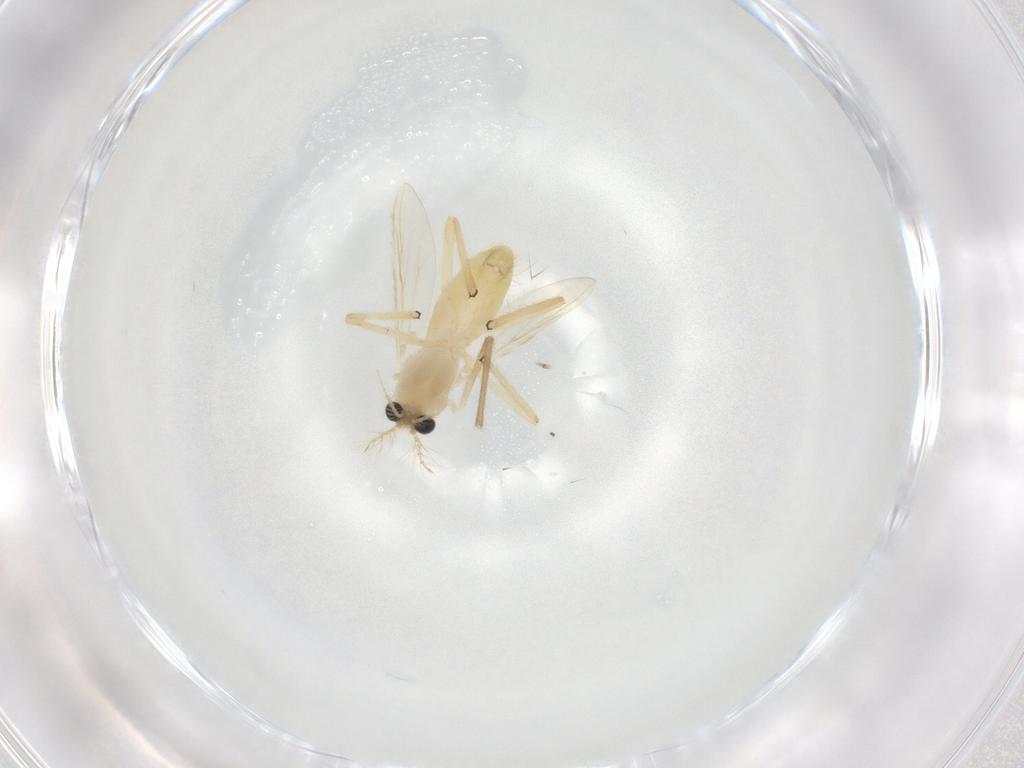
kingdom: Animalia
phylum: Arthropoda
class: Insecta
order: Diptera
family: Chironomidae
